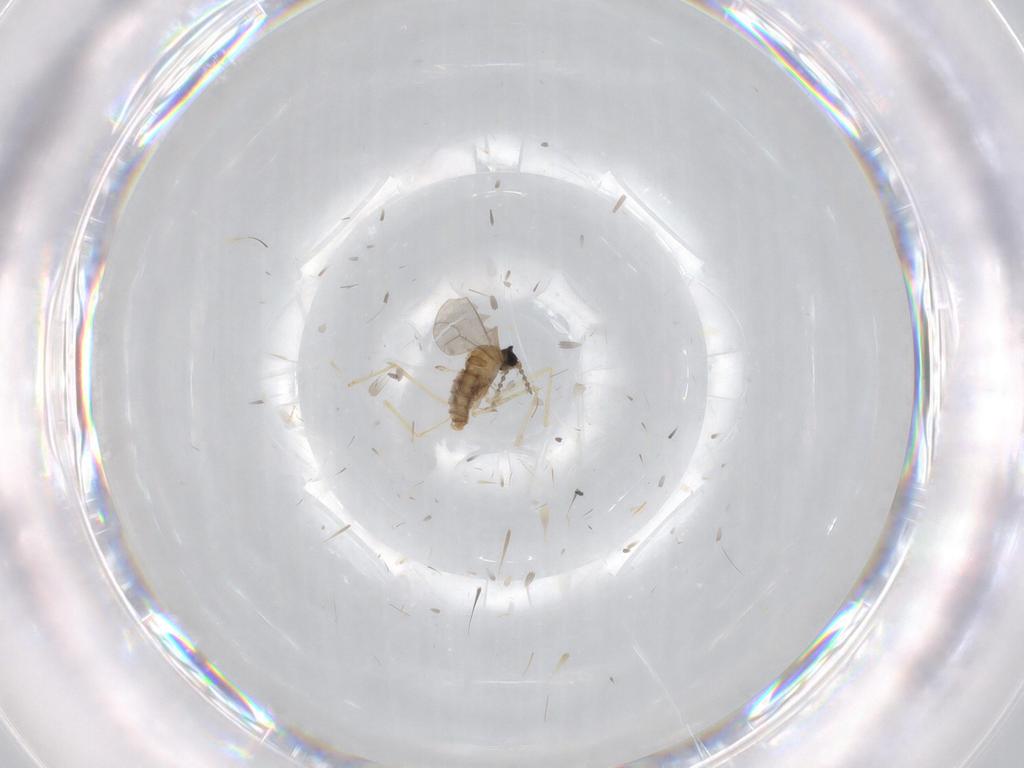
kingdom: Animalia
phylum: Arthropoda
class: Insecta
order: Diptera
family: Cecidomyiidae
